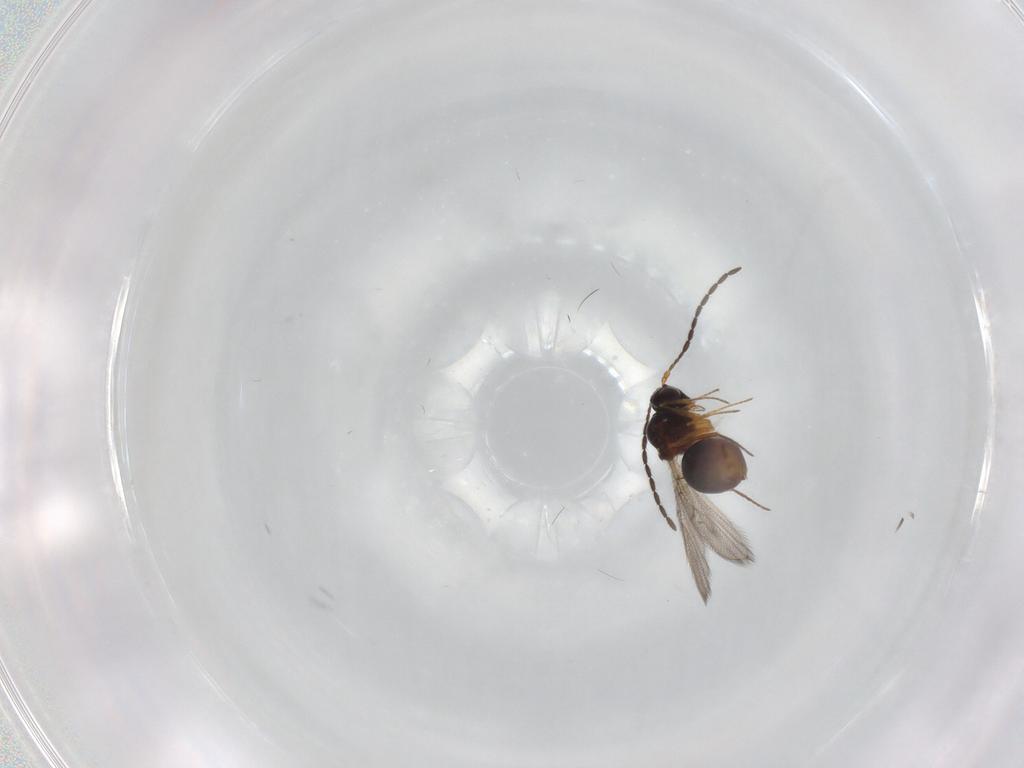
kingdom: Animalia
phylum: Arthropoda
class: Insecta
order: Hymenoptera
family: Figitidae
